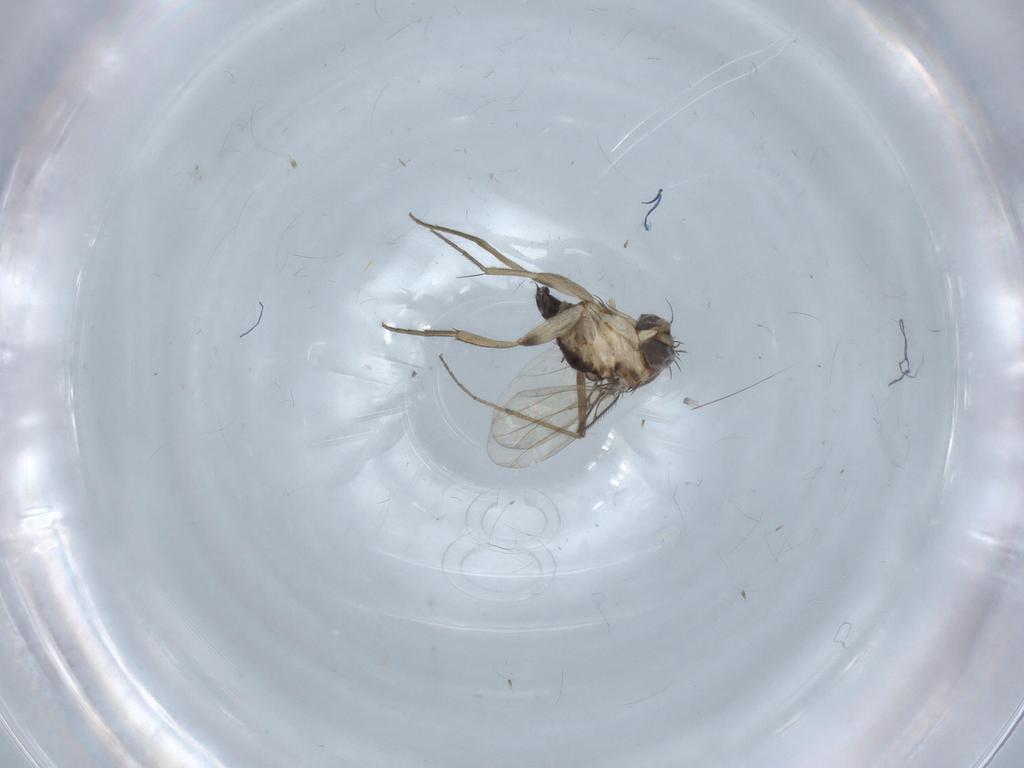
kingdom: Animalia
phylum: Arthropoda
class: Insecta
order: Diptera
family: Phoridae
